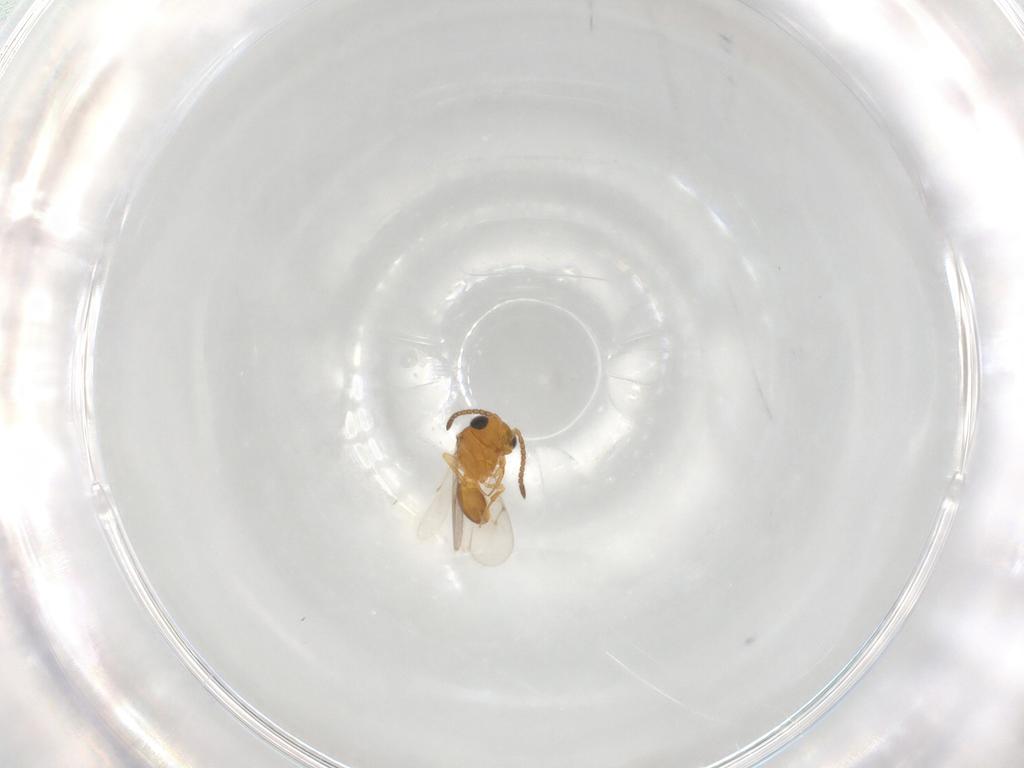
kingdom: Animalia
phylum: Arthropoda
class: Insecta
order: Hymenoptera
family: Scelionidae
